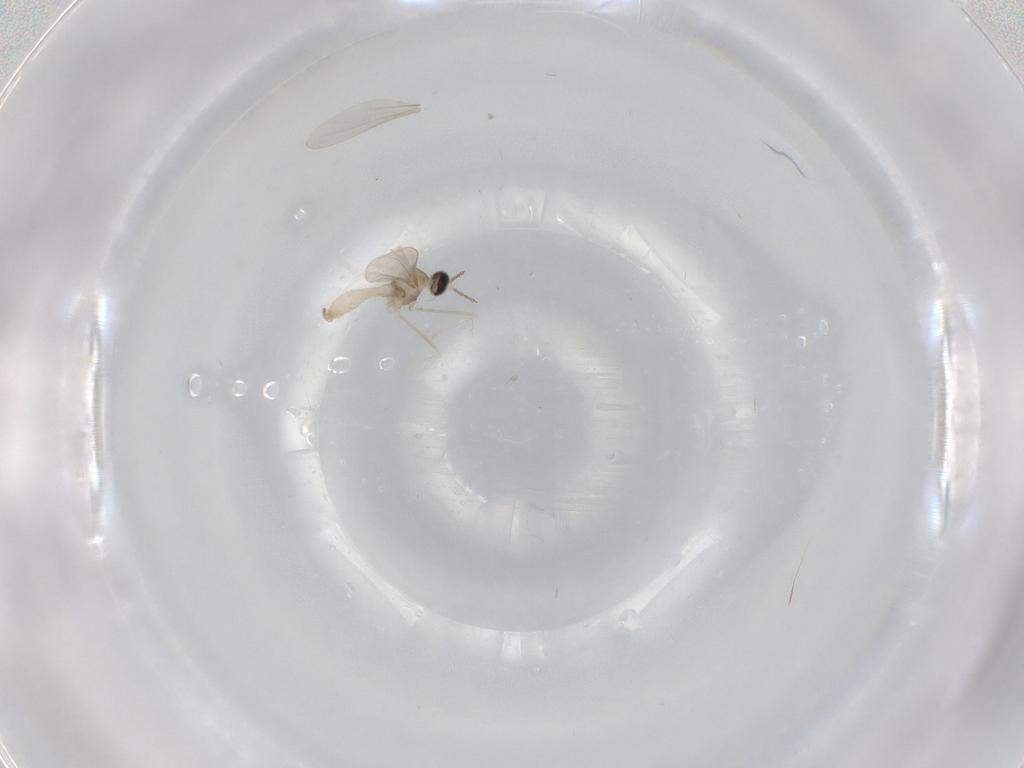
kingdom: Animalia
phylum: Arthropoda
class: Insecta
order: Diptera
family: Cecidomyiidae
